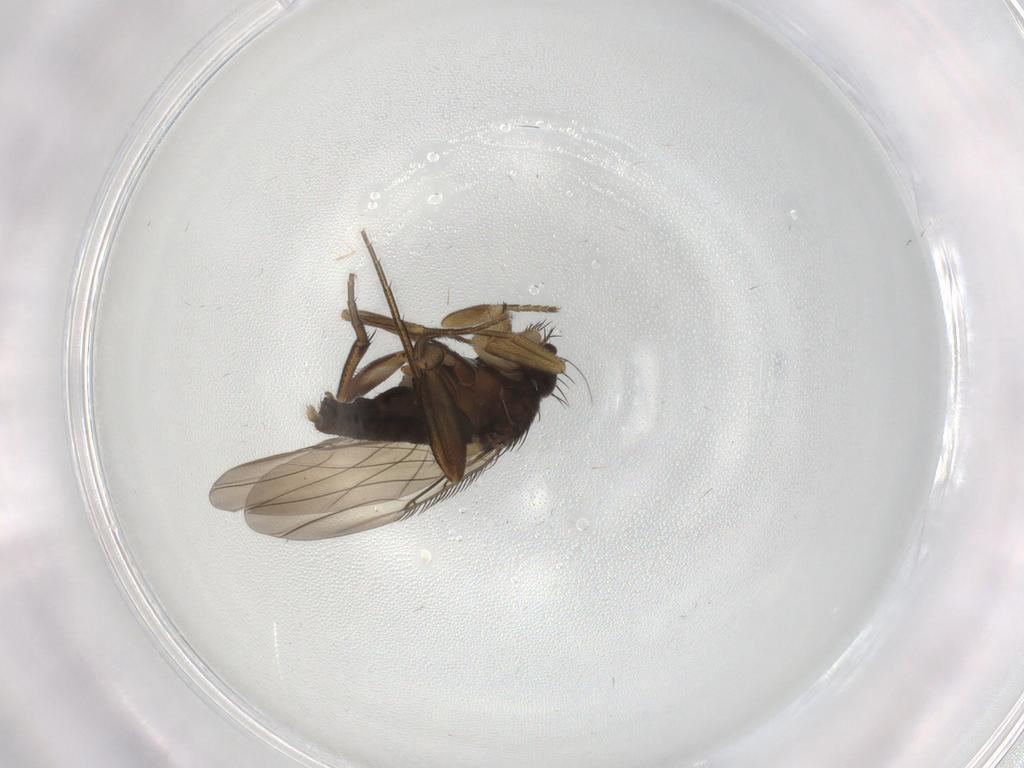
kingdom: Animalia
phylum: Arthropoda
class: Insecta
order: Diptera
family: Phoridae
